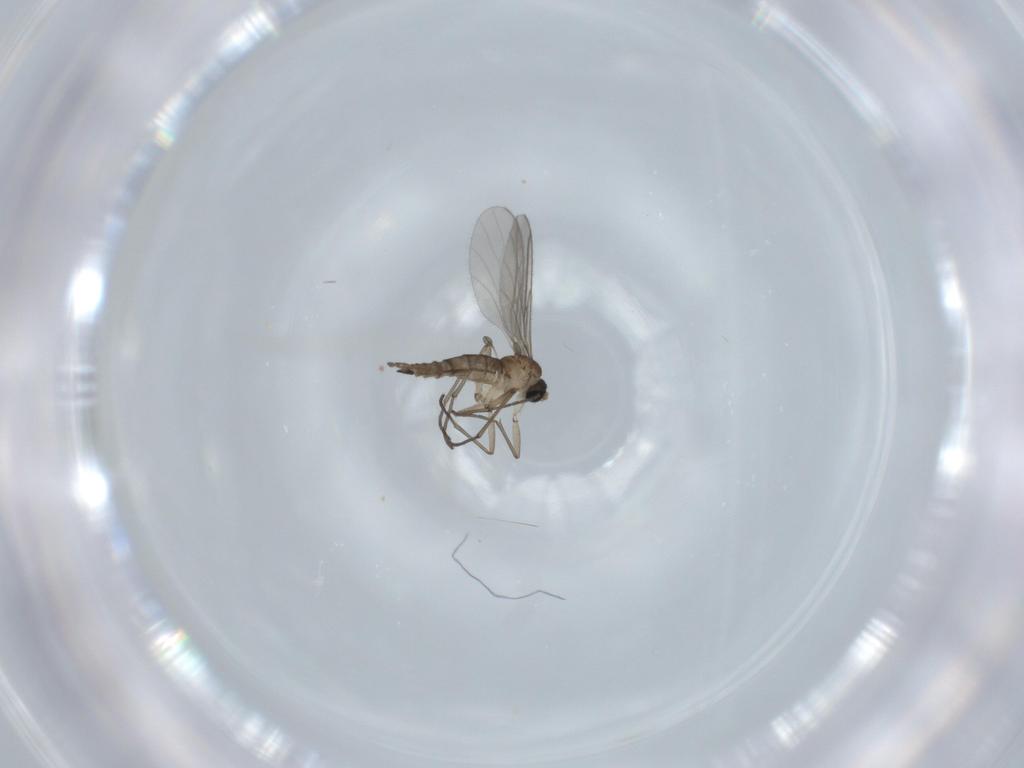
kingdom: Animalia
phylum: Arthropoda
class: Insecta
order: Diptera
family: Sciaridae
